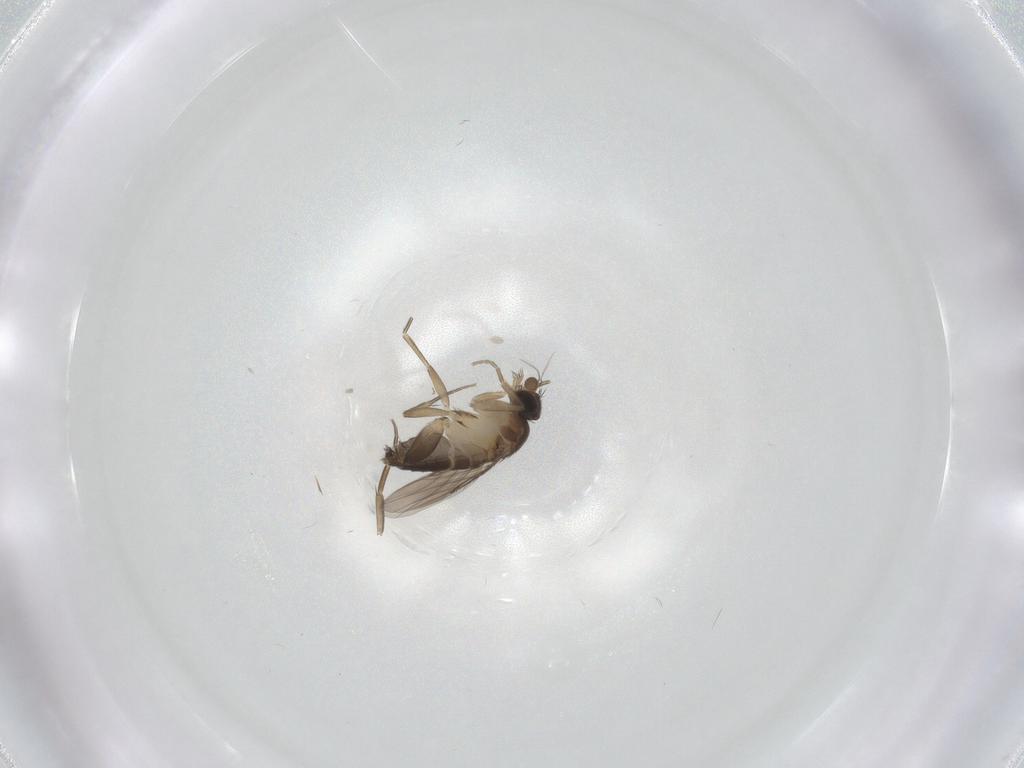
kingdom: Animalia
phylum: Arthropoda
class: Insecta
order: Diptera
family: Phoridae
